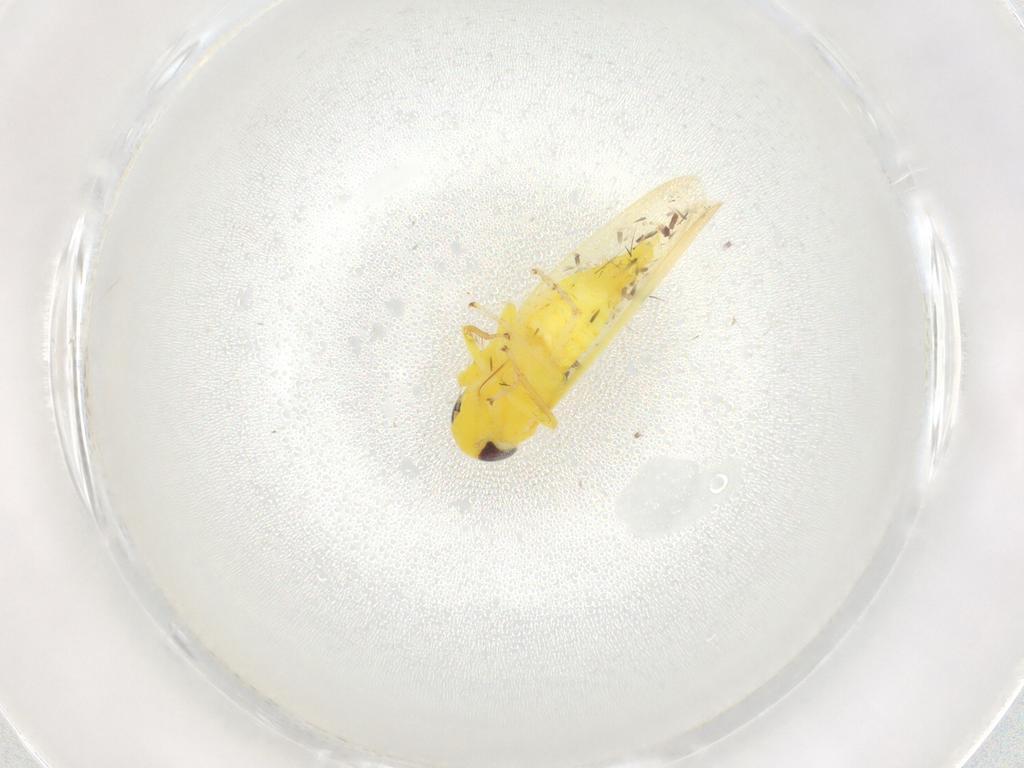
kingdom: Animalia
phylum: Arthropoda
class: Insecta
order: Hemiptera
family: Cicadellidae
